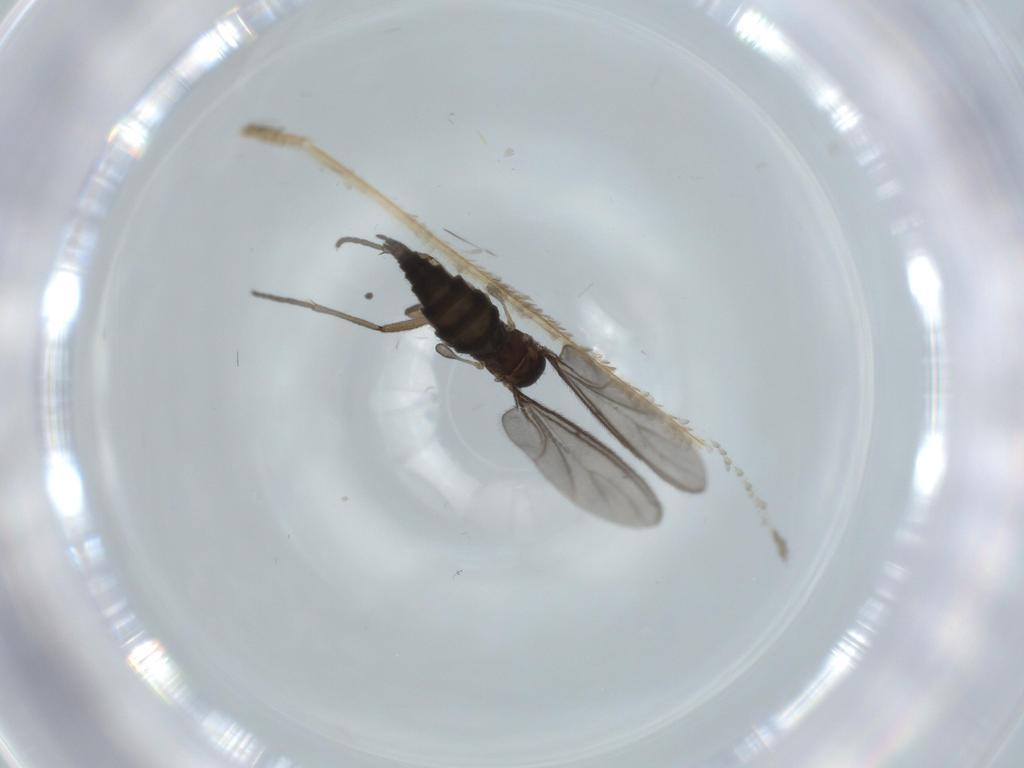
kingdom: Animalia
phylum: Arthropoda
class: Insecta
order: Diptera
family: Sciaridae
